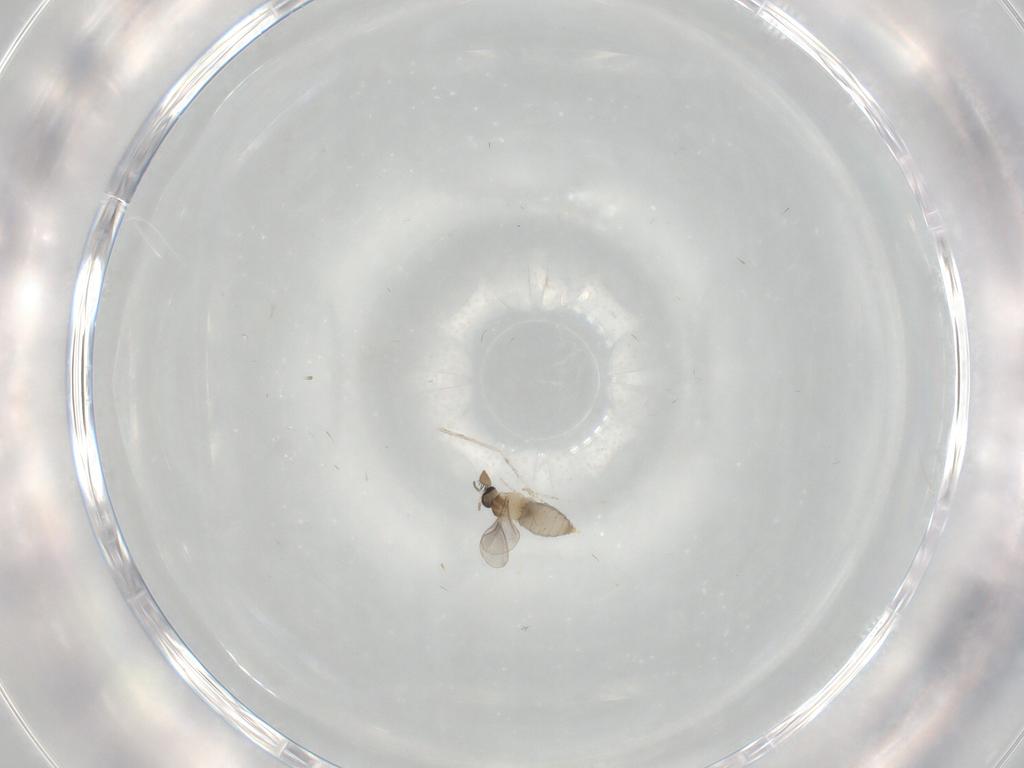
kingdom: Animalia
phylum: Arthropoda
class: Insecta
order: Diptera
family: Cecidomyiidae
